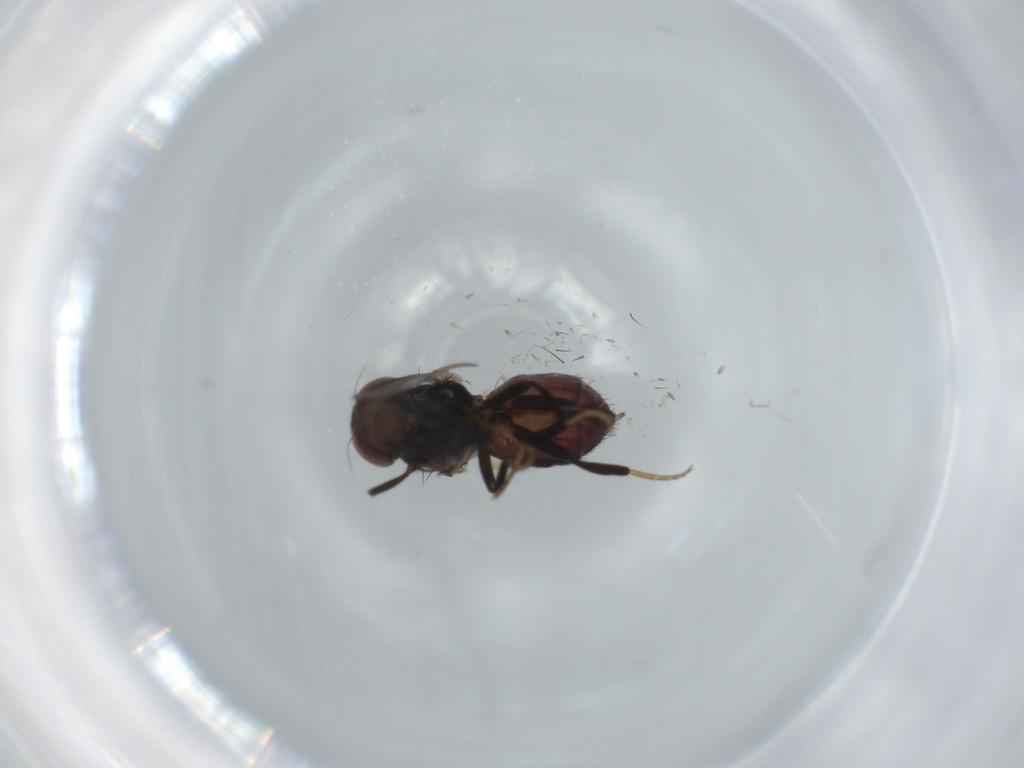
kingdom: Animalia
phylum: Arthropoda
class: Insecta
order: Diptera
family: Chloropidae
